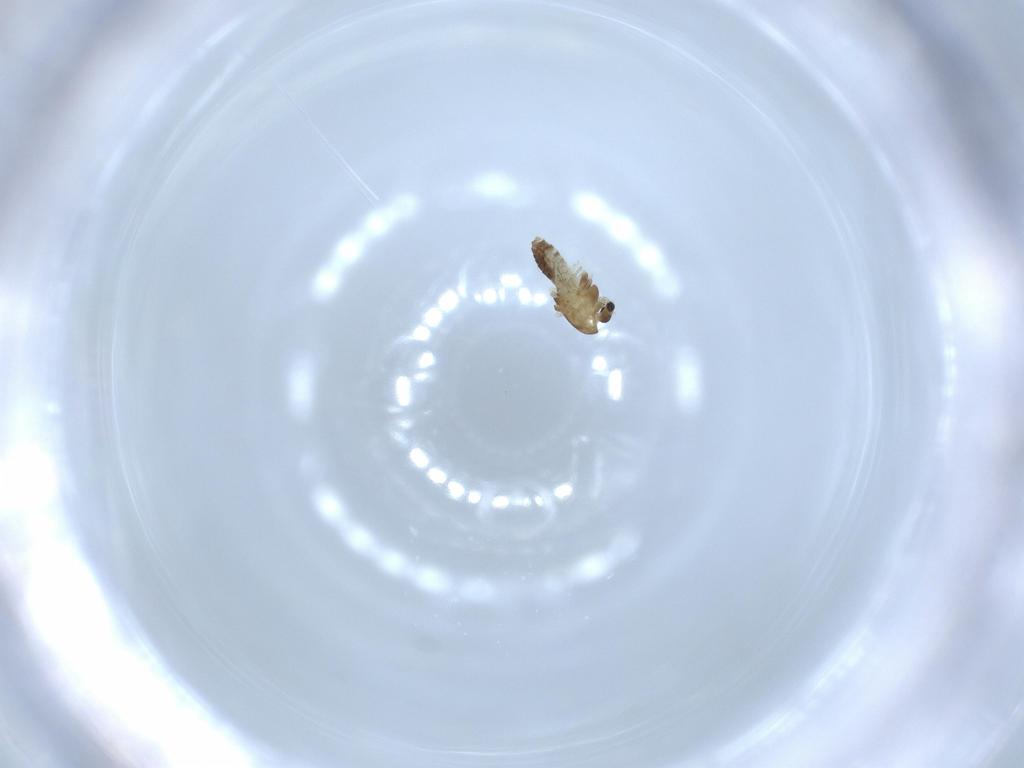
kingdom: Animalia
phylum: Arthropoda
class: Insecta
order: Diptera
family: Chironomidae
